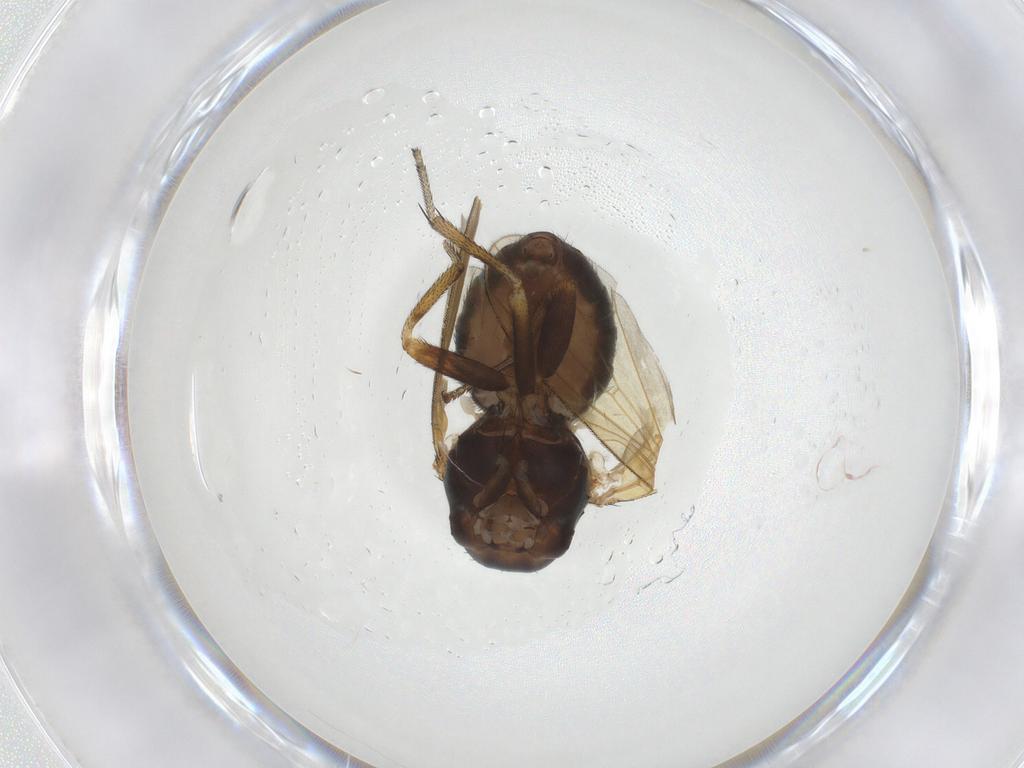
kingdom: Animalia
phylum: Arthropoda
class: Insecta
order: Diptera
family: Lauxaniidae
